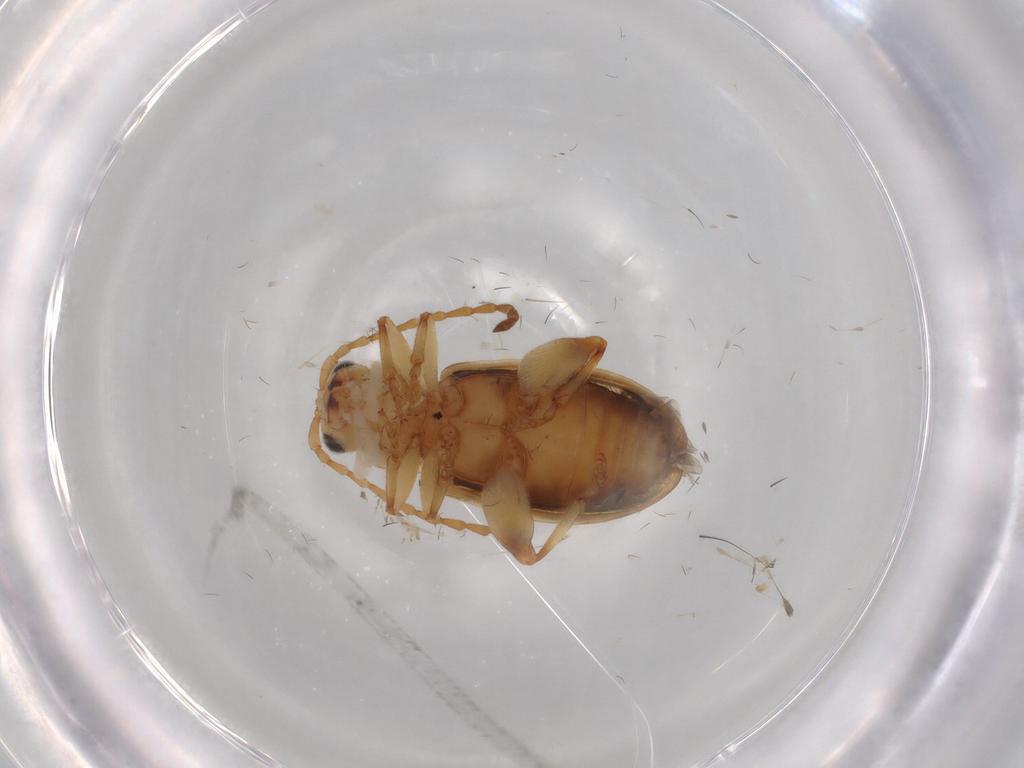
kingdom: Animalia
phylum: Arthropoda
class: Insecta
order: Coleoptera
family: Chrysomelidae
